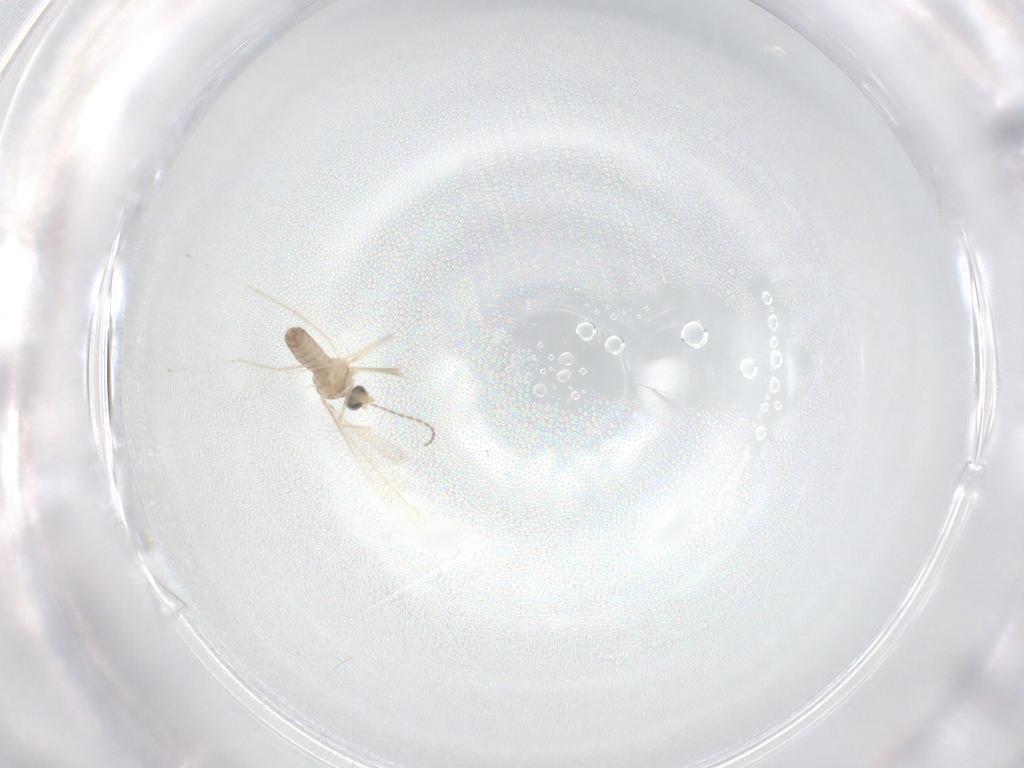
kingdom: Animalia
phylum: Arthropoda
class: Insecta
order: Diptera
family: Cecidomyiidae
